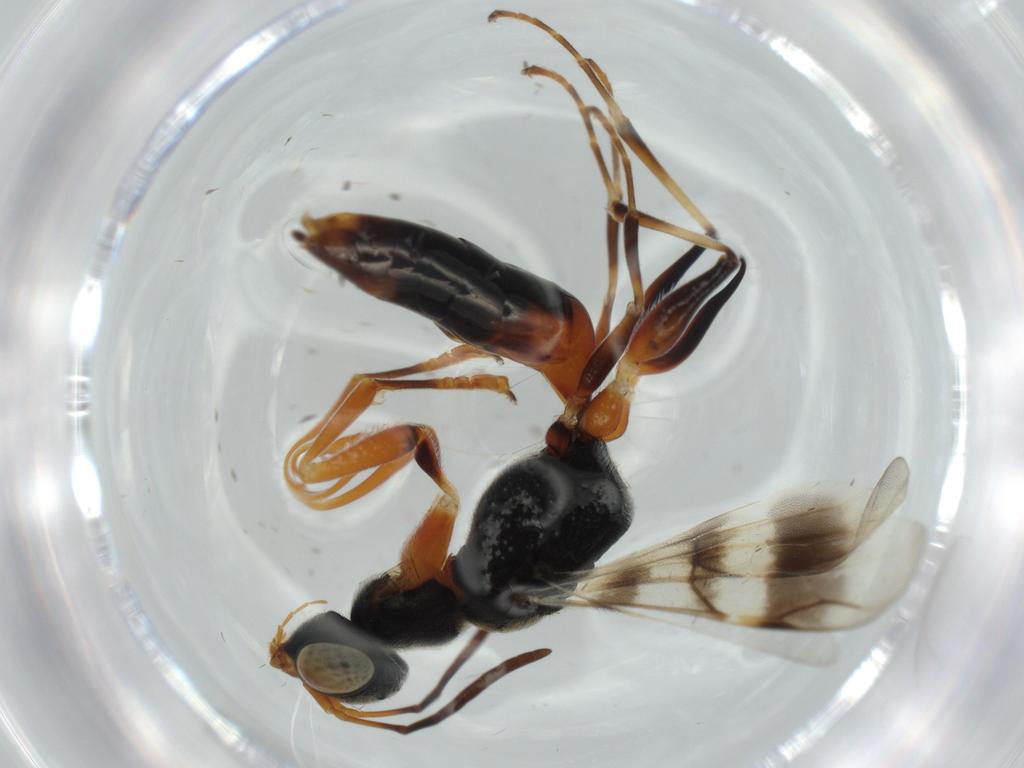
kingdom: Animalia
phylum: Arthropoda
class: Insecta
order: Hymenoptera
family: Dryinidae
